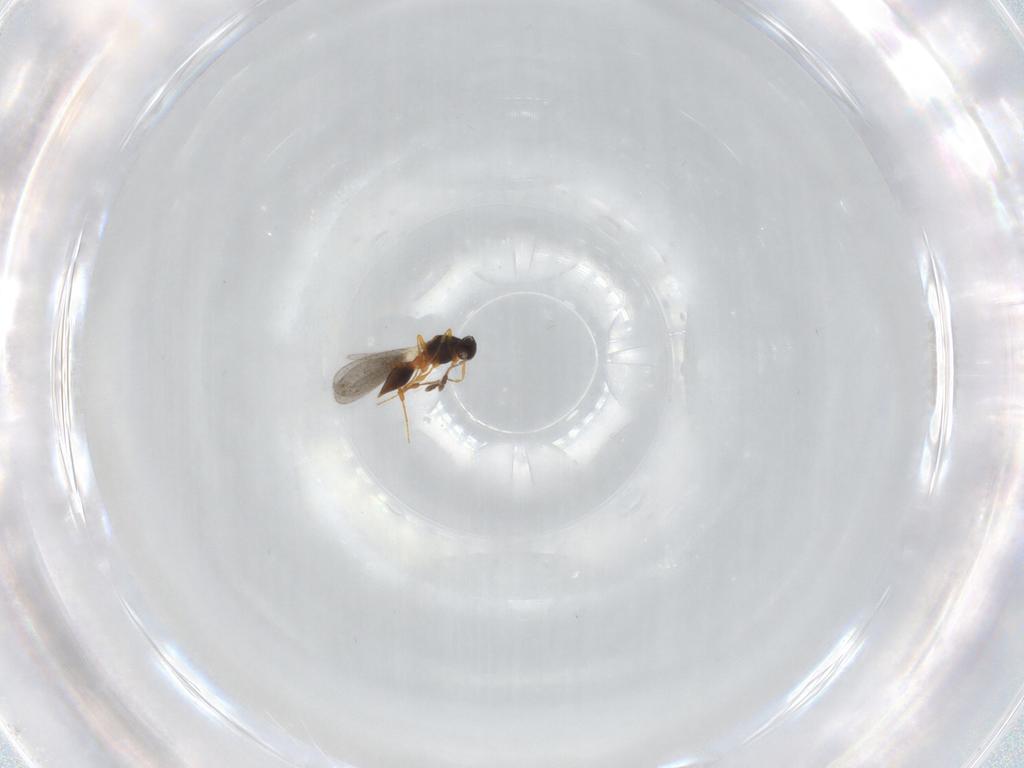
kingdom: Animalia
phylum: Arthropoda
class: Insecta
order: Hymenoptera
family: Platygastridae
